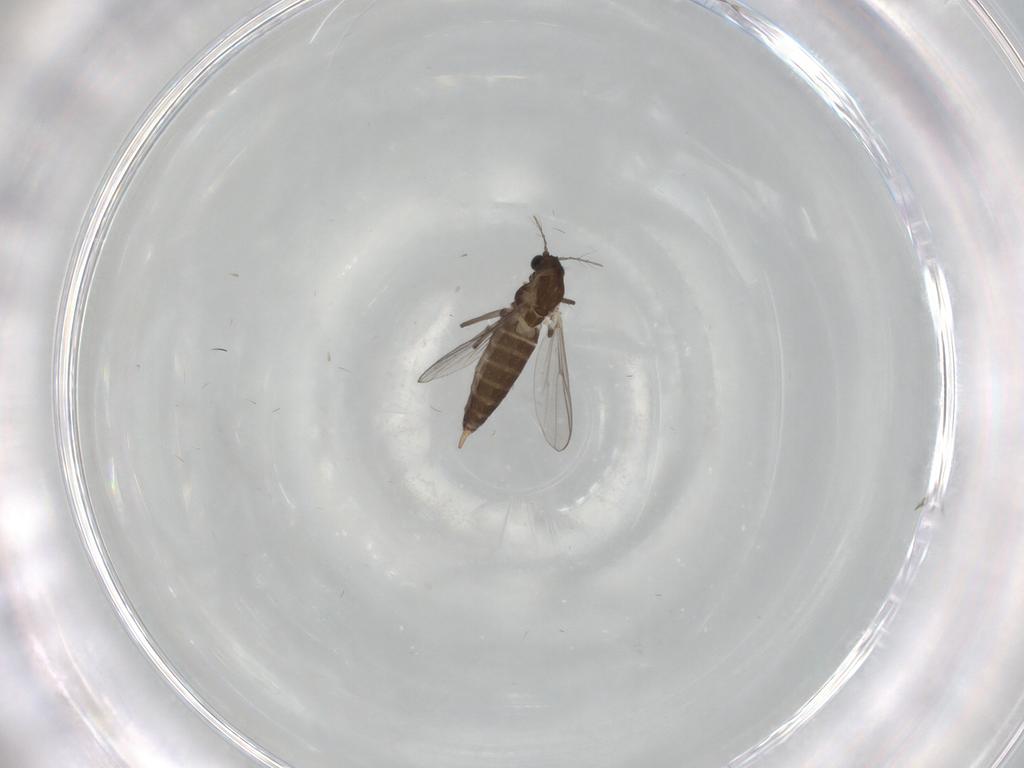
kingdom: Animalia
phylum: Arthropoda
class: Insecta
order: Diptera
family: Chironomidae
